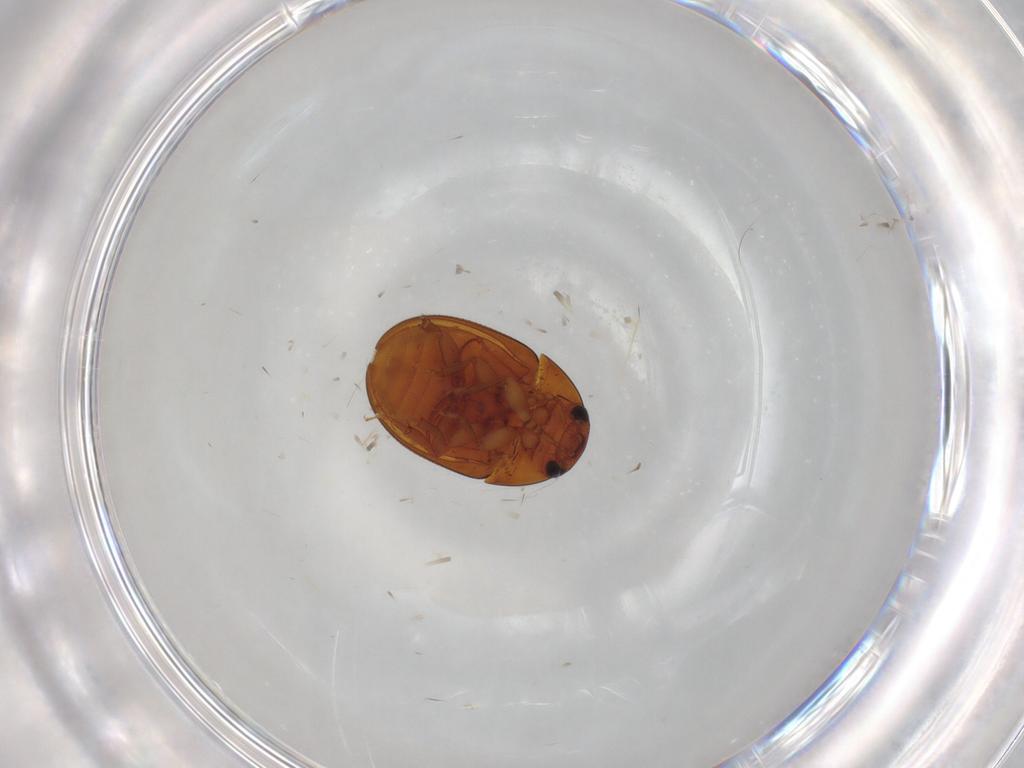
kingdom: Animalia
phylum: Arthropoda
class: Insecta
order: Coleoptera
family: Phalacridae
